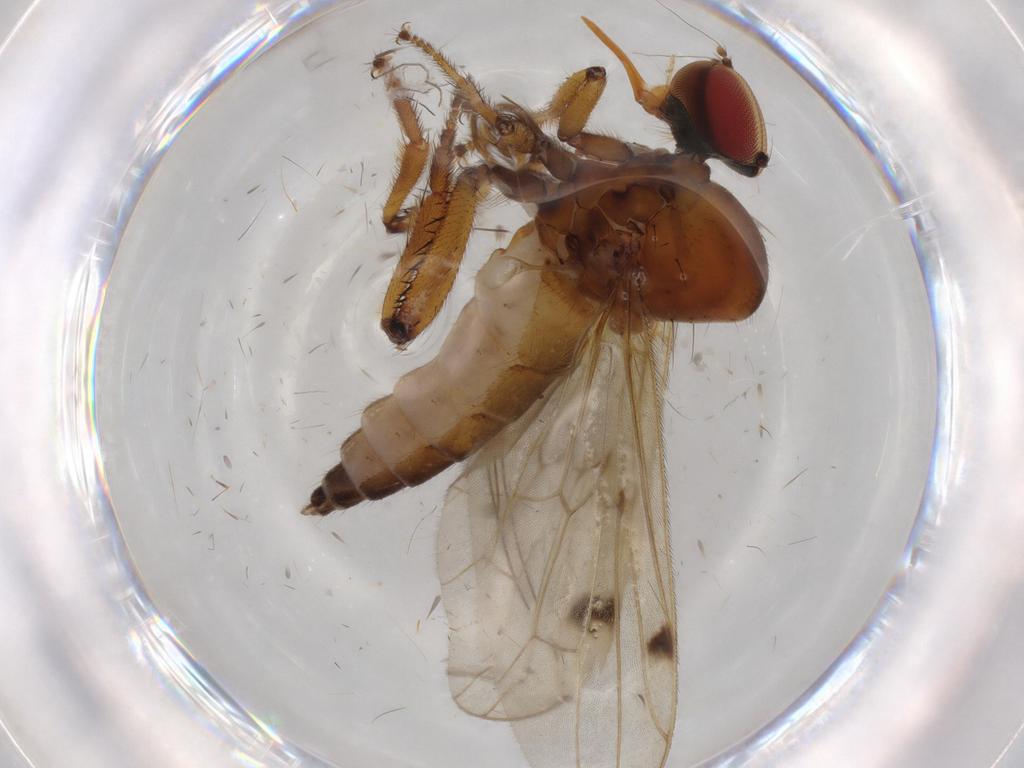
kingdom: Animalia
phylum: Arthropoda
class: Insecta
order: Diptera
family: Hybotidae
